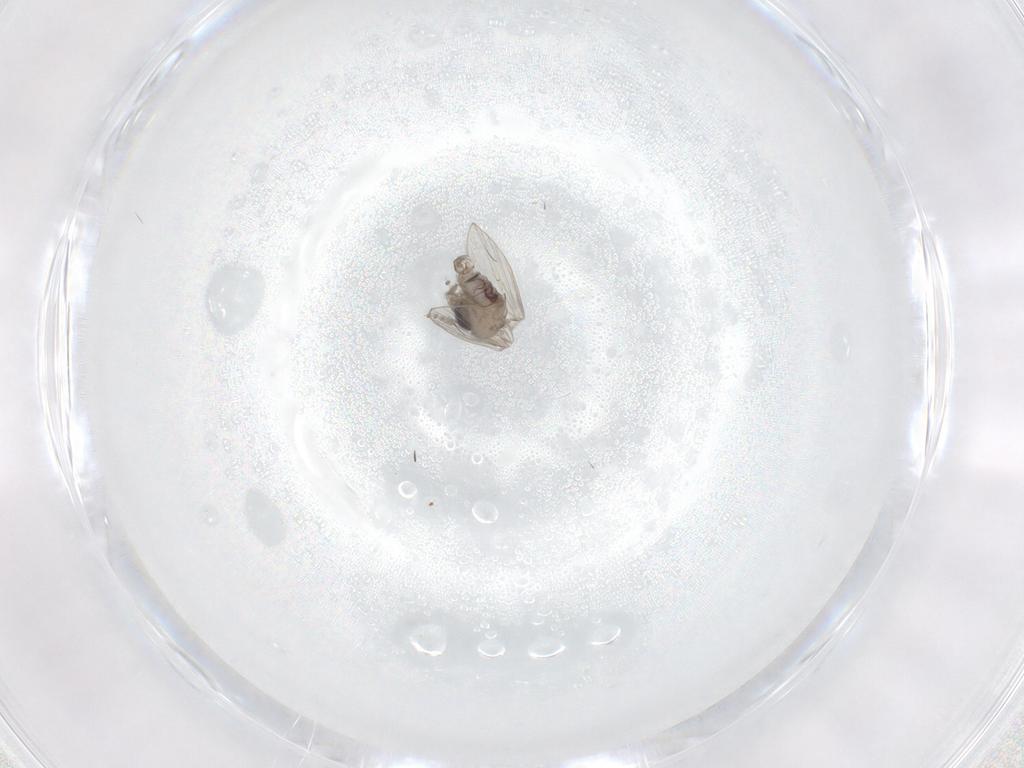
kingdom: Animalia
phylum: Arthropoda
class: Insecta
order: Diptera
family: Psychodidae
